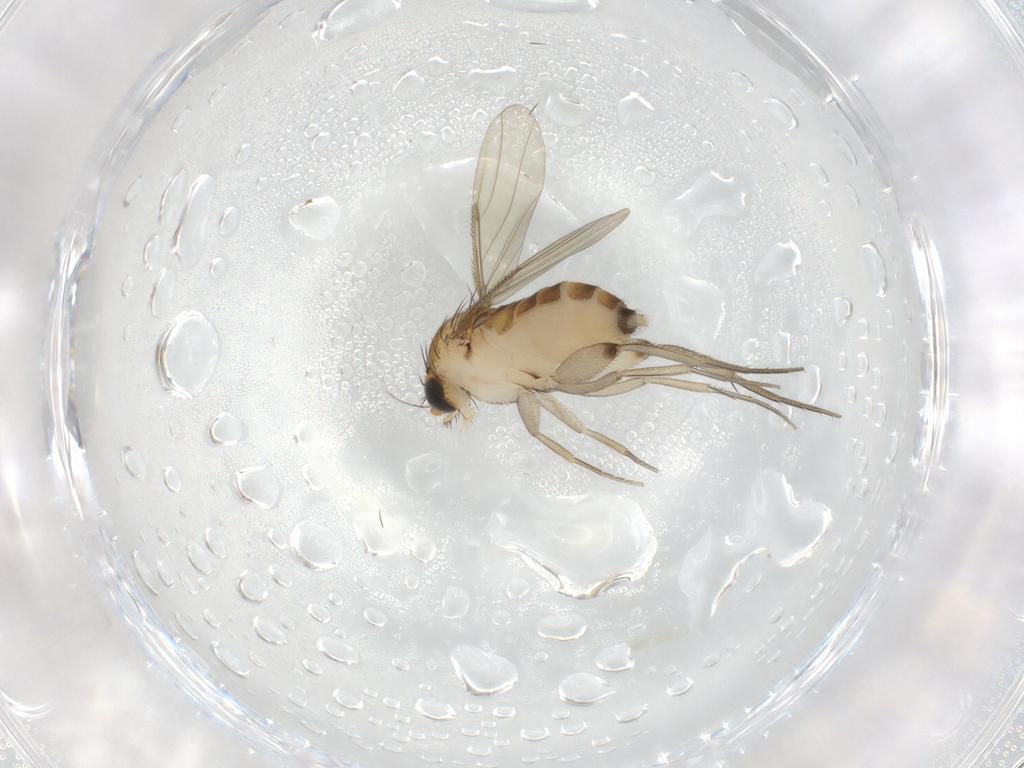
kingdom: Animalia
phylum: Arthropoda
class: Insecta
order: Diptera
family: Phoridae
